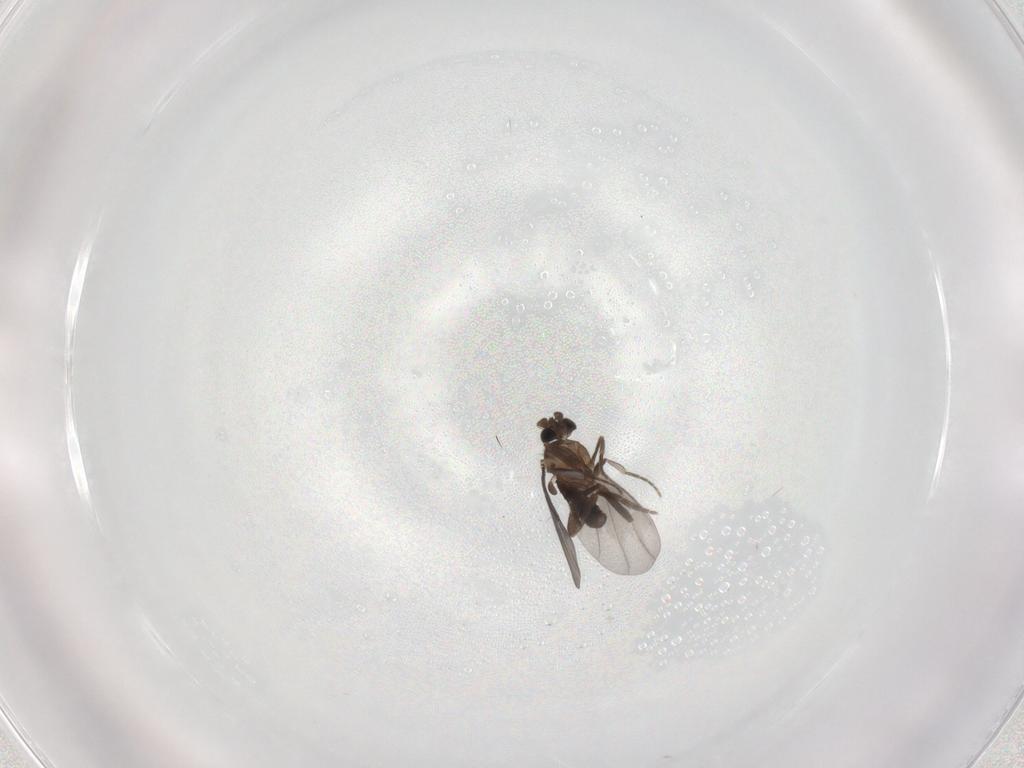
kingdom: Animalia
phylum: Arthropoda
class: Insecta
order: Diptera
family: Phoridae
